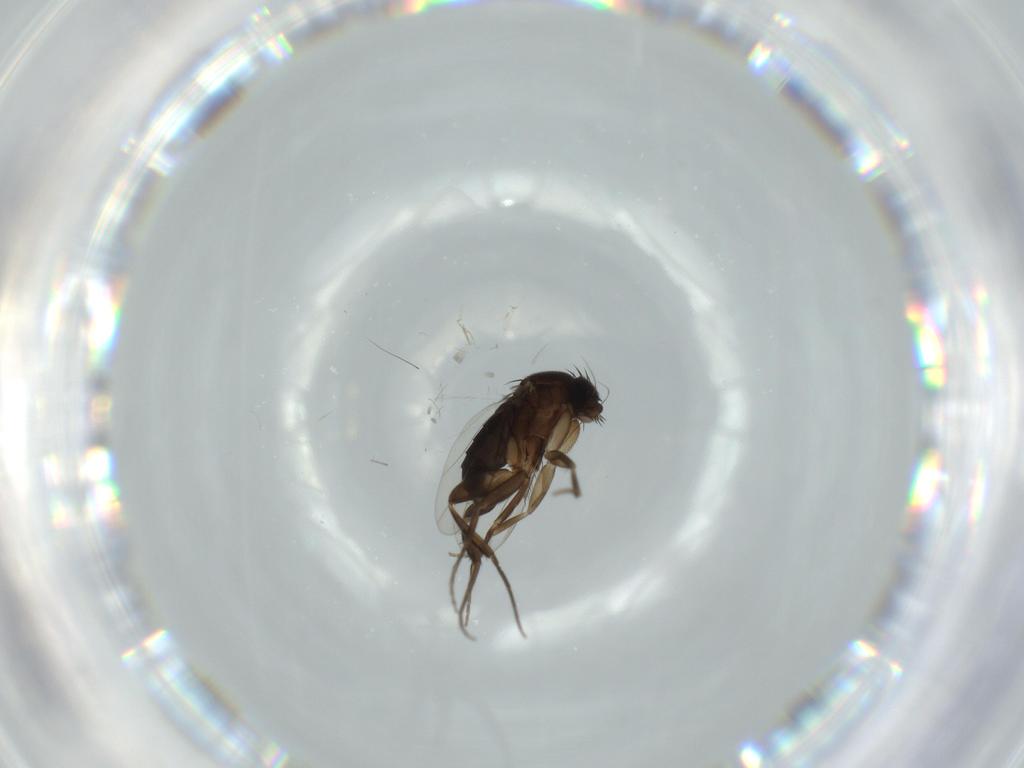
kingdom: Animalia
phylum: Arthropoda
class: Insecta
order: Diptera
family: Phoridae
